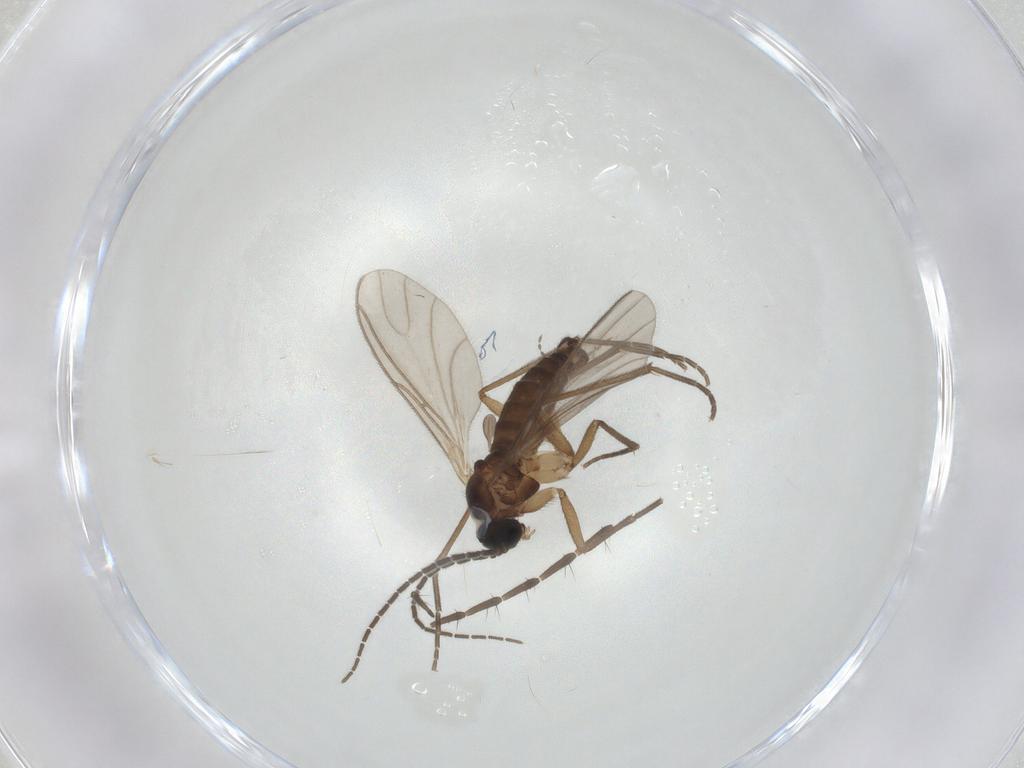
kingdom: Animalia
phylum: Arthropoda
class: Insecta
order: Diptera
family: Sciaridae
